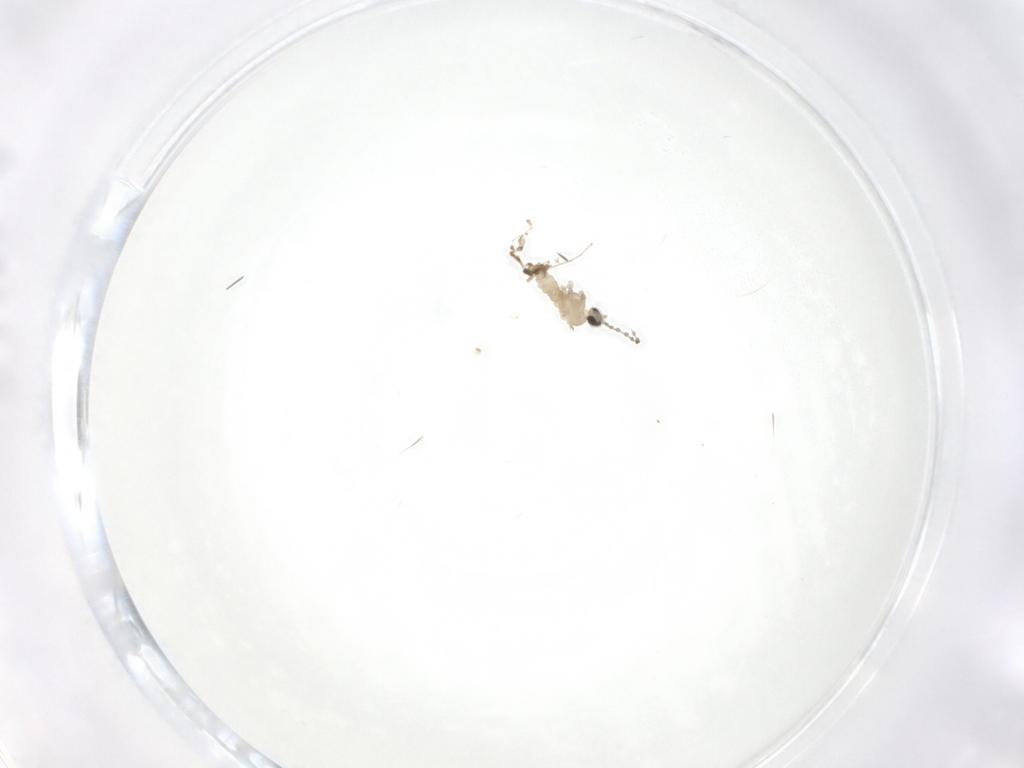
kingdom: Animalia
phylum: Arthropoda
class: Insecta
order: Diptera
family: Cecidomyiidae
